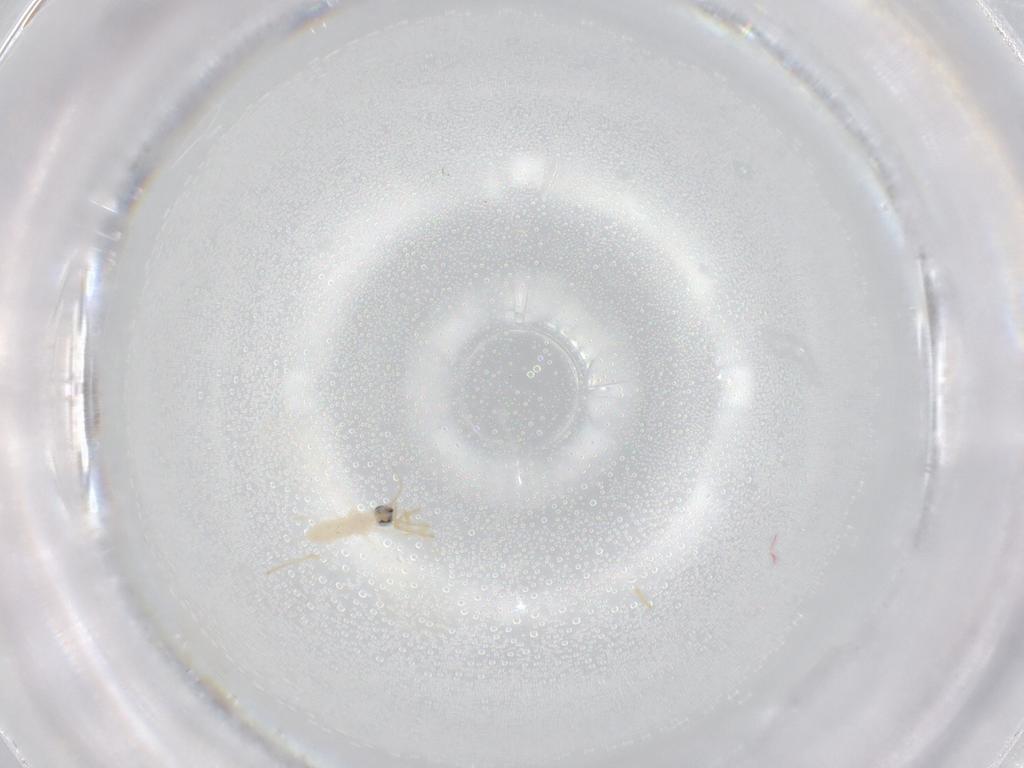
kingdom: Animalia
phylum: Arthropoda
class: Insecta
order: Diptera
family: Cecidomyiidae
